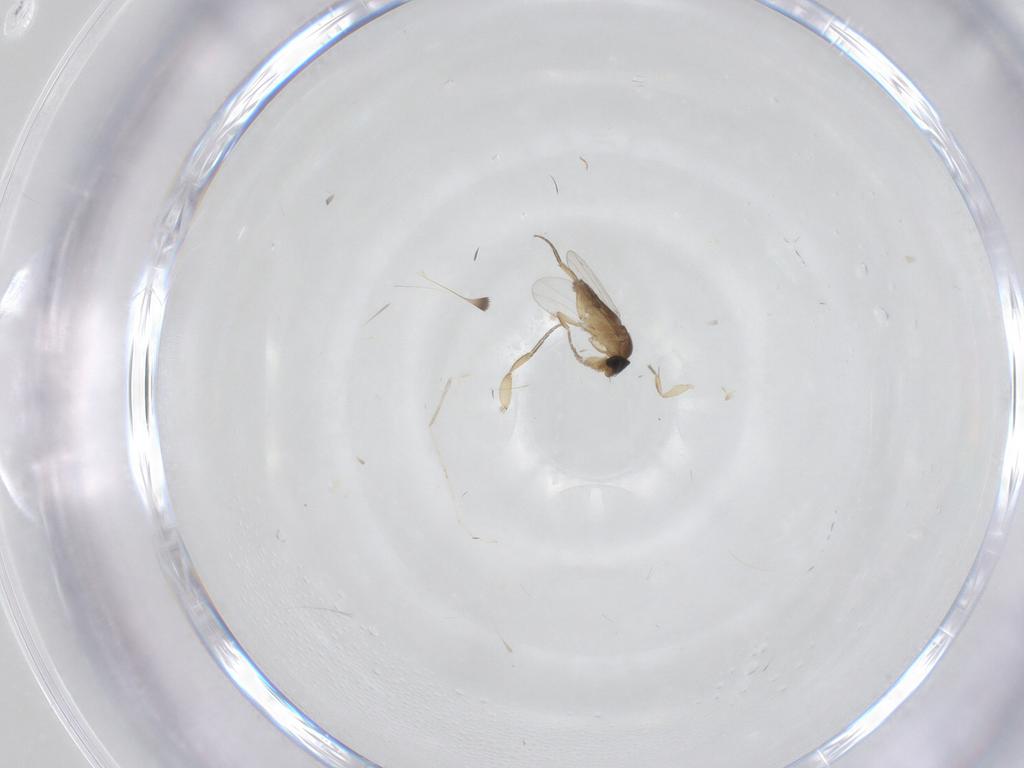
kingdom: Animalia
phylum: Arthropoda
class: Insecta
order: Diptera
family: Cecidomyiidae
